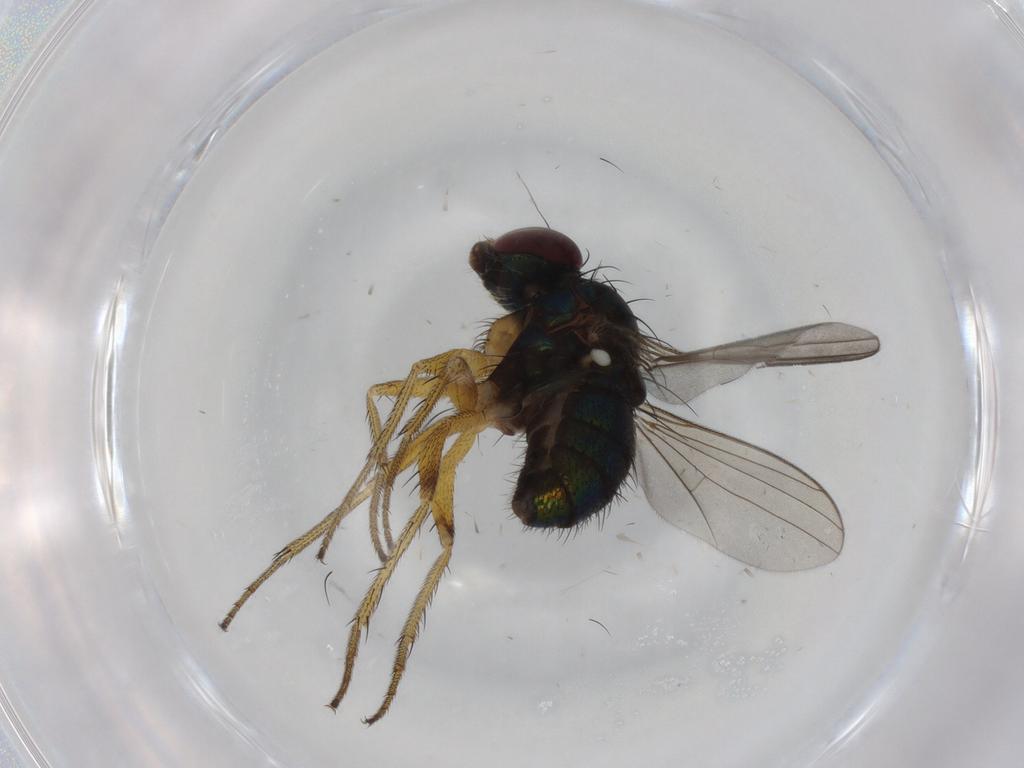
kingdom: Animalia
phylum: Arthropoda
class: Insecta
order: Diptera
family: Dolichopodidae
